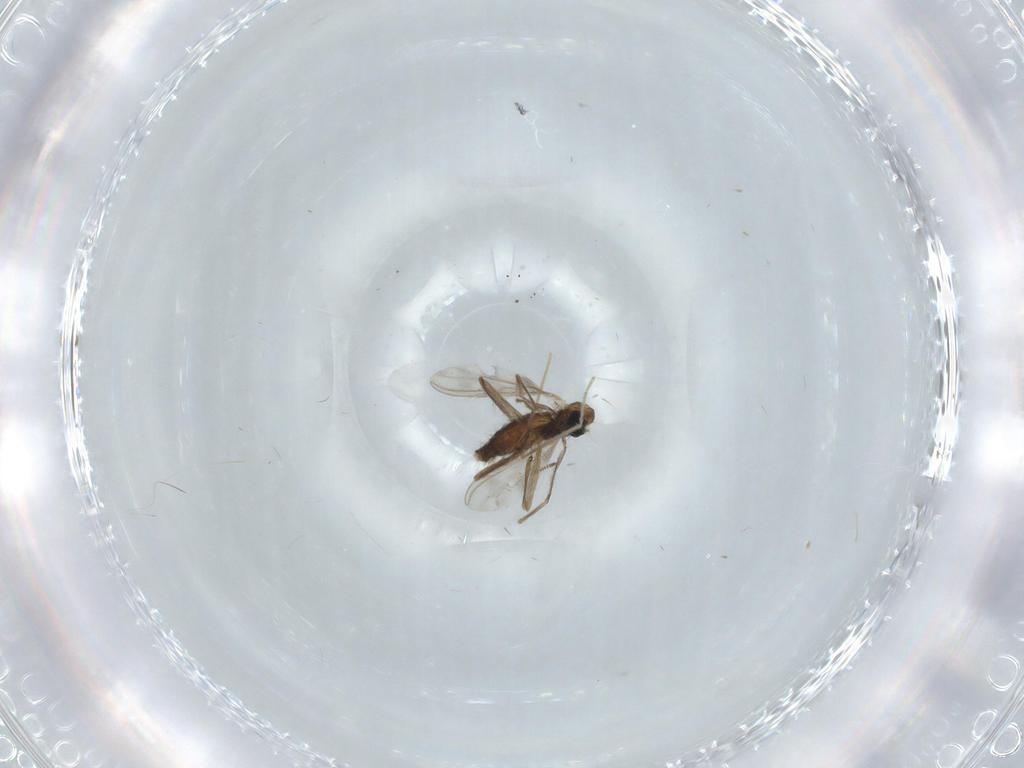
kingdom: Animalia
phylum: Arthropoda
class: Insecta
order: Diptera
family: Chironomidae
